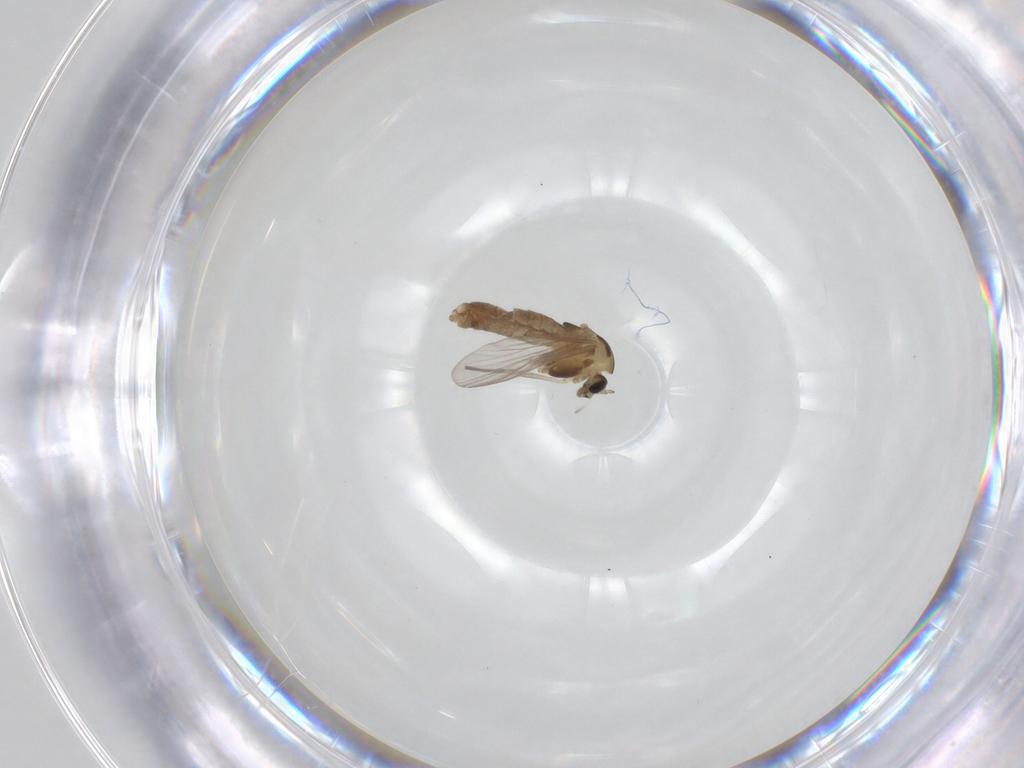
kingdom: Animalia
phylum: Arthropoda
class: Insecta
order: Diptera
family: Chironomidae
